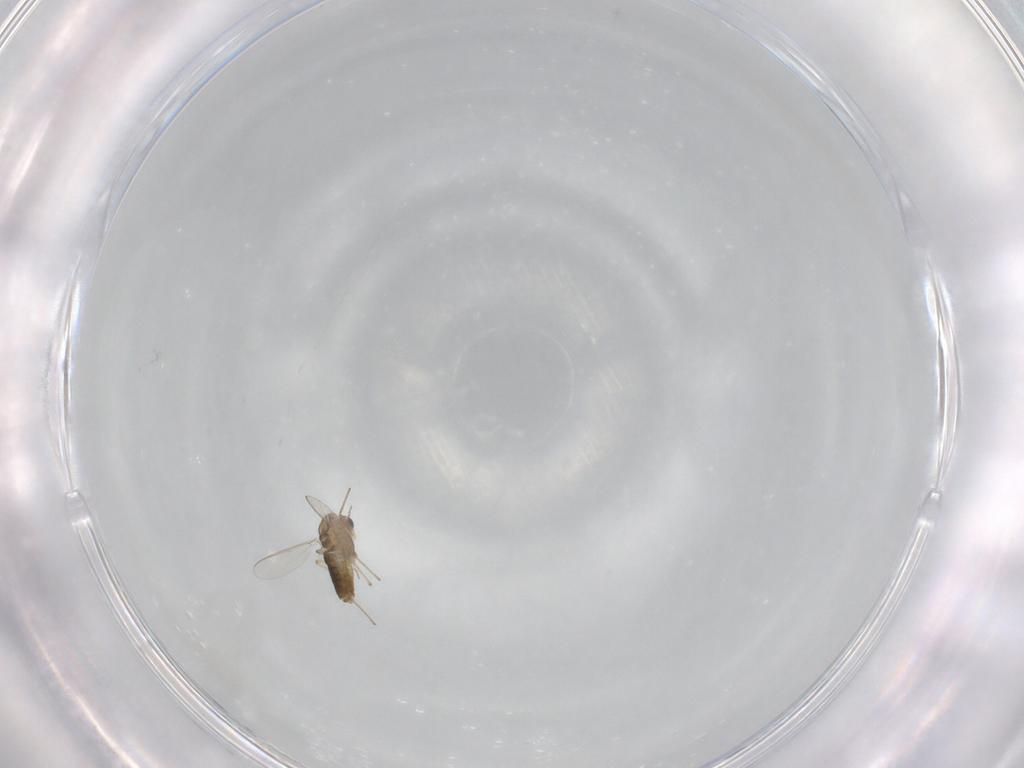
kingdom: Animalia
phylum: Arthropoda
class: Insecta
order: Diptera
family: Chironomidae
